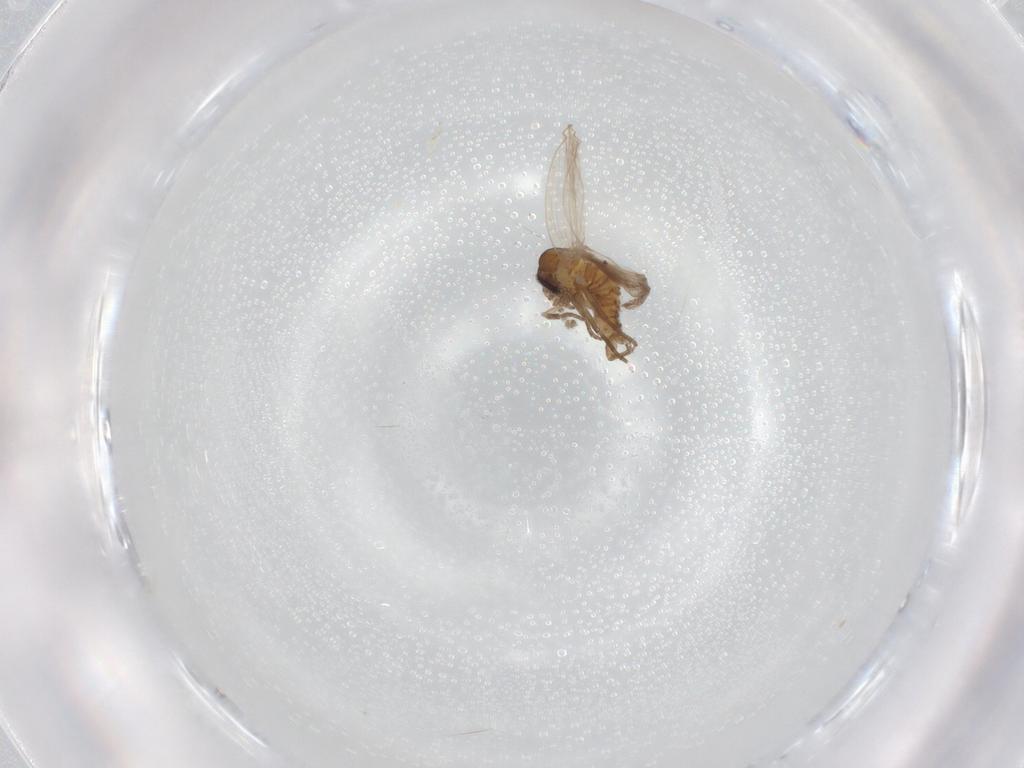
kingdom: Animalia
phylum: Arthropoda
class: Insecta
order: Diptera
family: Psychodidae
